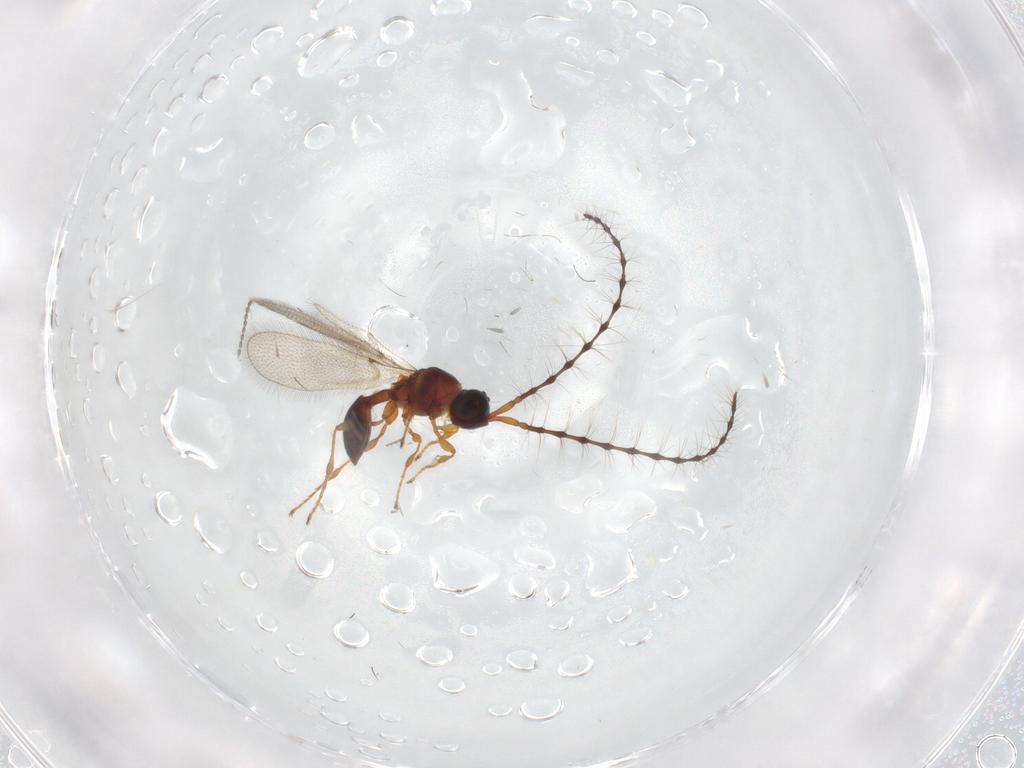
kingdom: Animalia
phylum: Arthropoda
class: Insecta
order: Hymenoptera
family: Diapriidae
